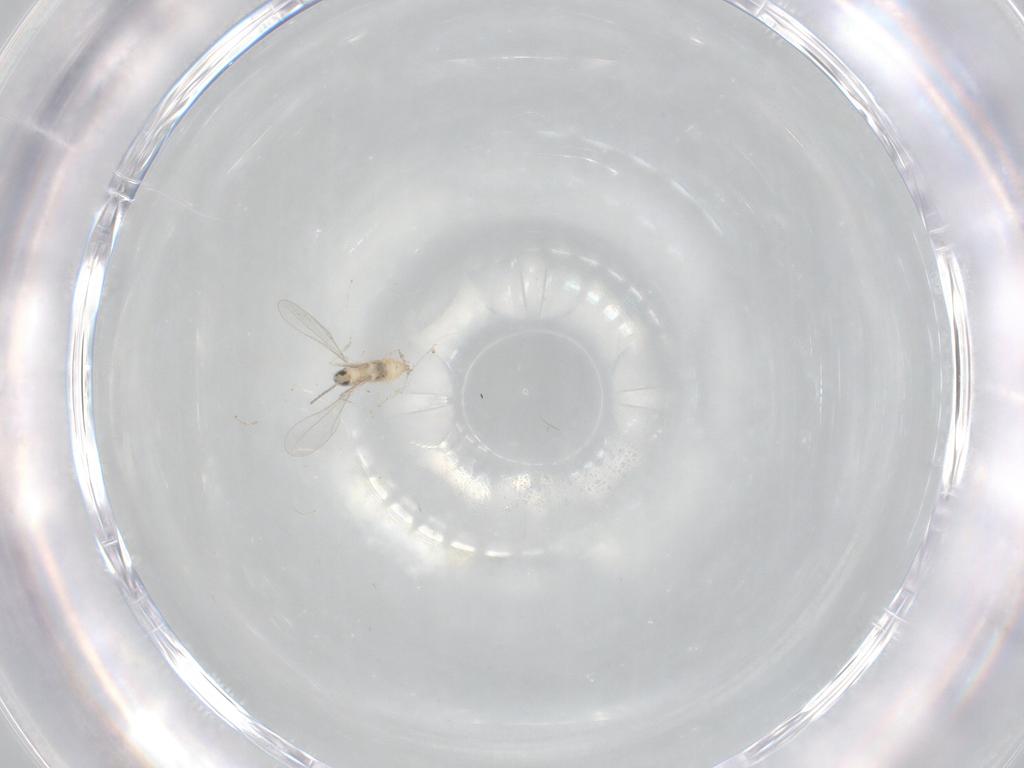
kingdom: Animalia
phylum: Arthropoda
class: Insecta
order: Diptera
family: Cecidomyiidae
